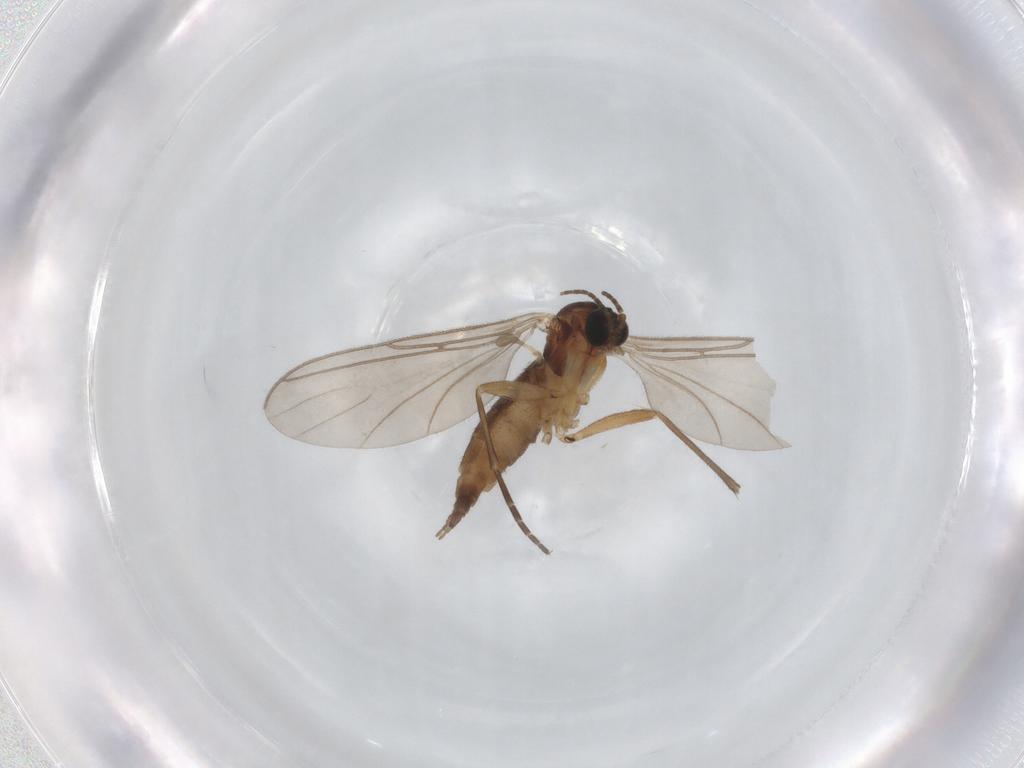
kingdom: Animalia
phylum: Arthropoda
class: Insecta
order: Diptera
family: Sciaridae
